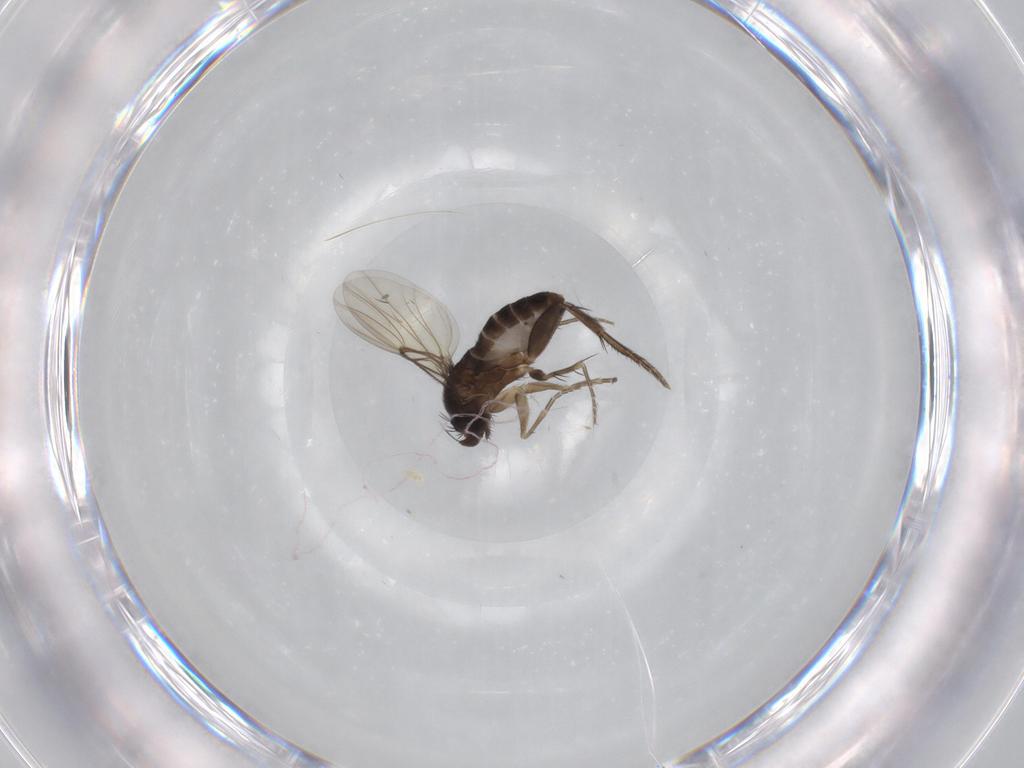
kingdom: Animalia
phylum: Arthropoda
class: Insecta
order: Diptera
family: Phoridae
